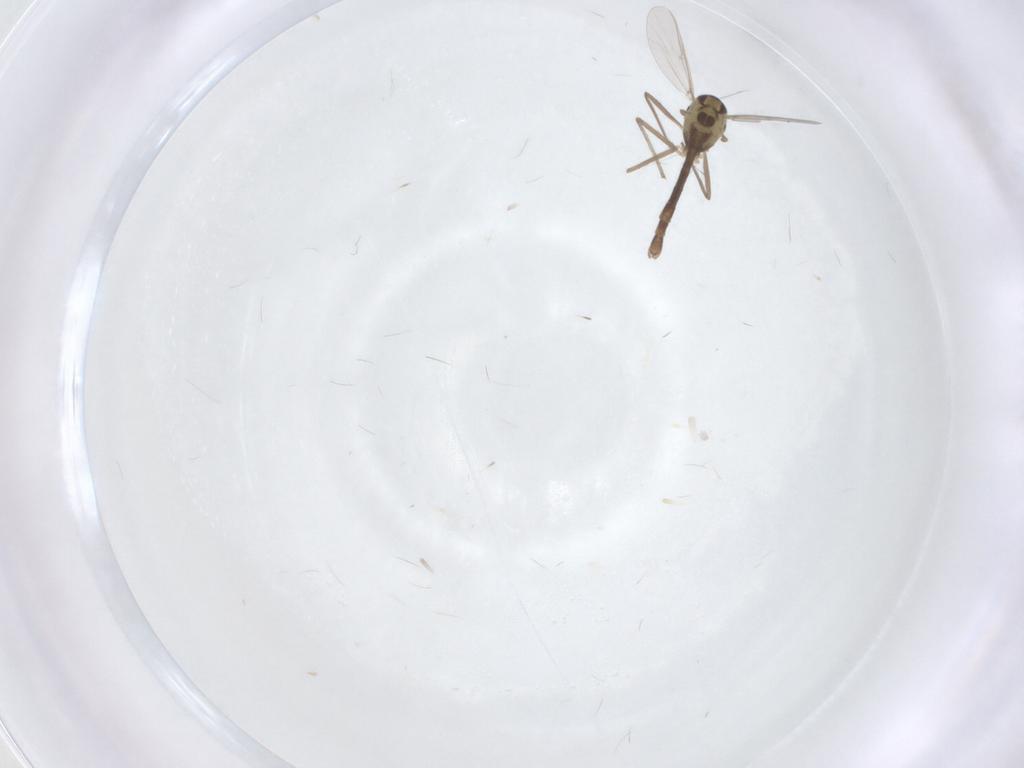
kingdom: Animalia
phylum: Arthropoda
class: Insecta
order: Diptera
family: Chironomidae
